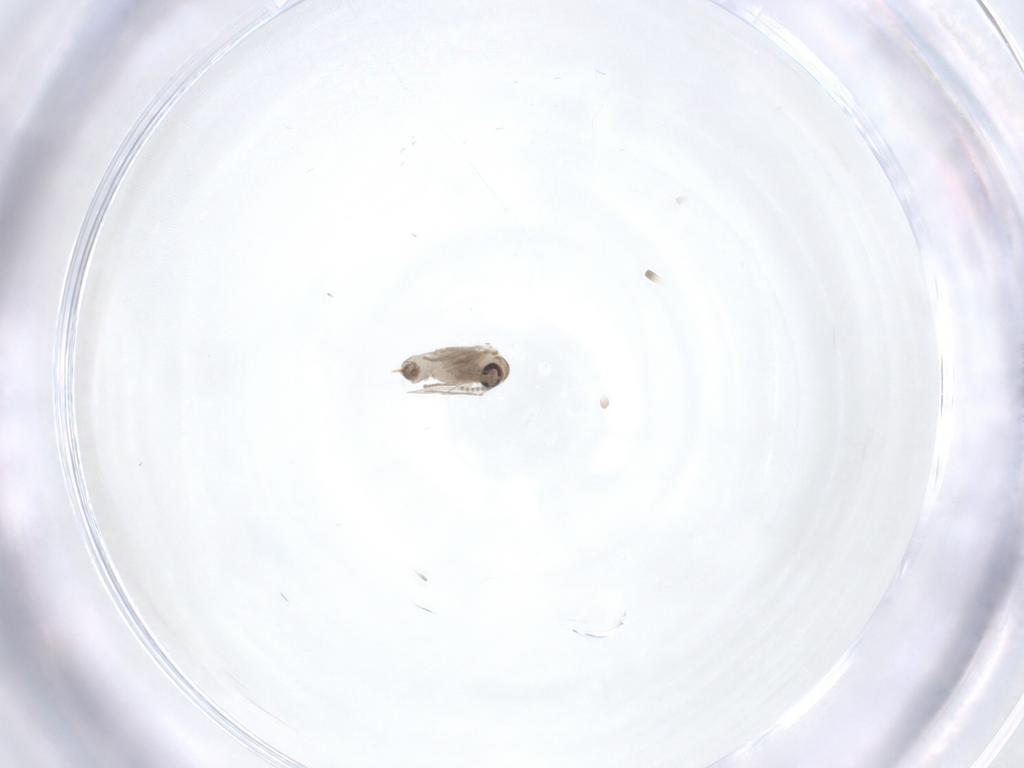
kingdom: Animalia
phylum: Arthropoda
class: Insecta
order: Diptera
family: Psychodidae
